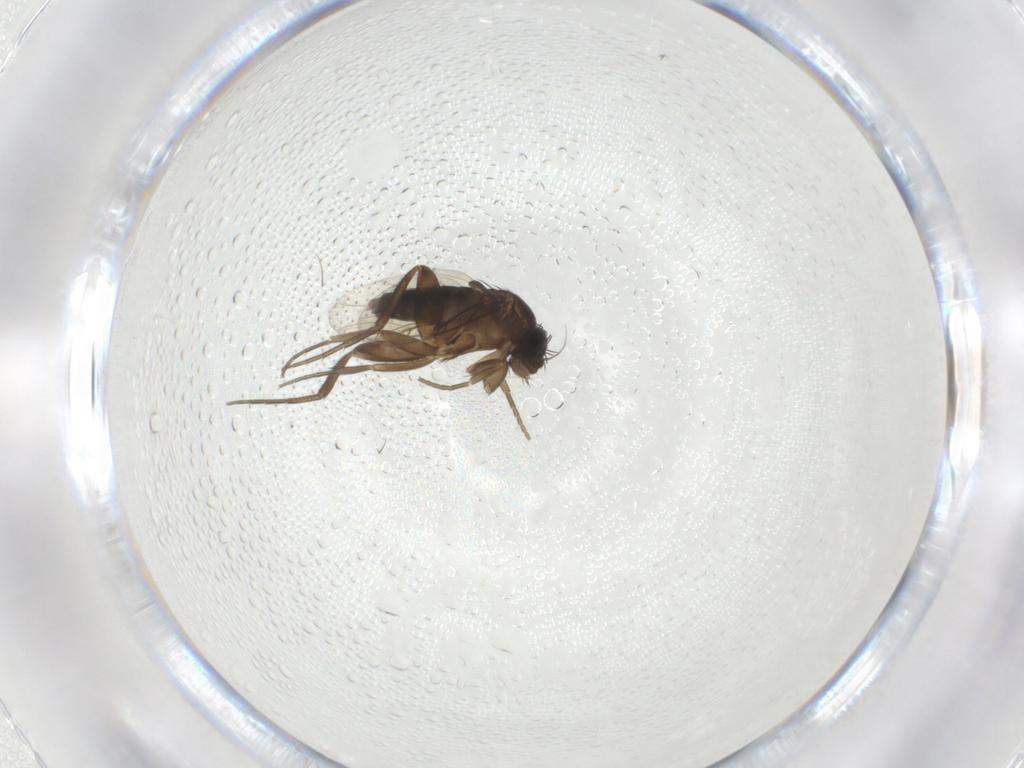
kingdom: Animalia
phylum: Arthropoda
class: Insecta
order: Diptera
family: Phoridae
